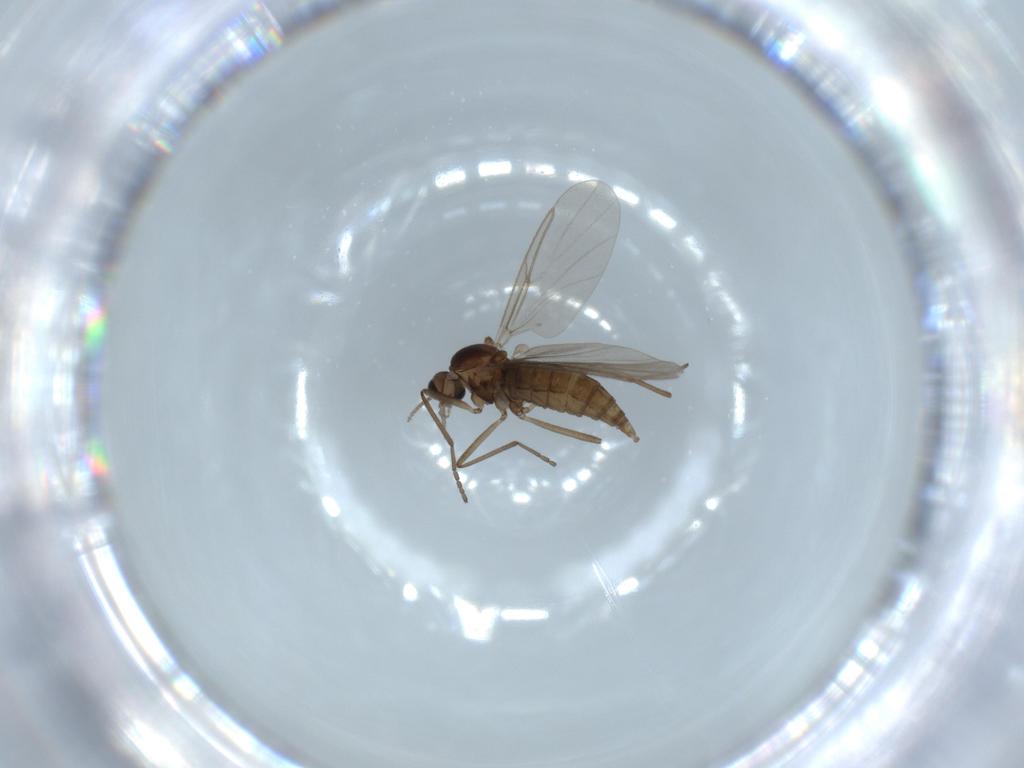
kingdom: Animalia
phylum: Arthropoda
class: Insecta
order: Diptera
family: Cecidomyiidae
